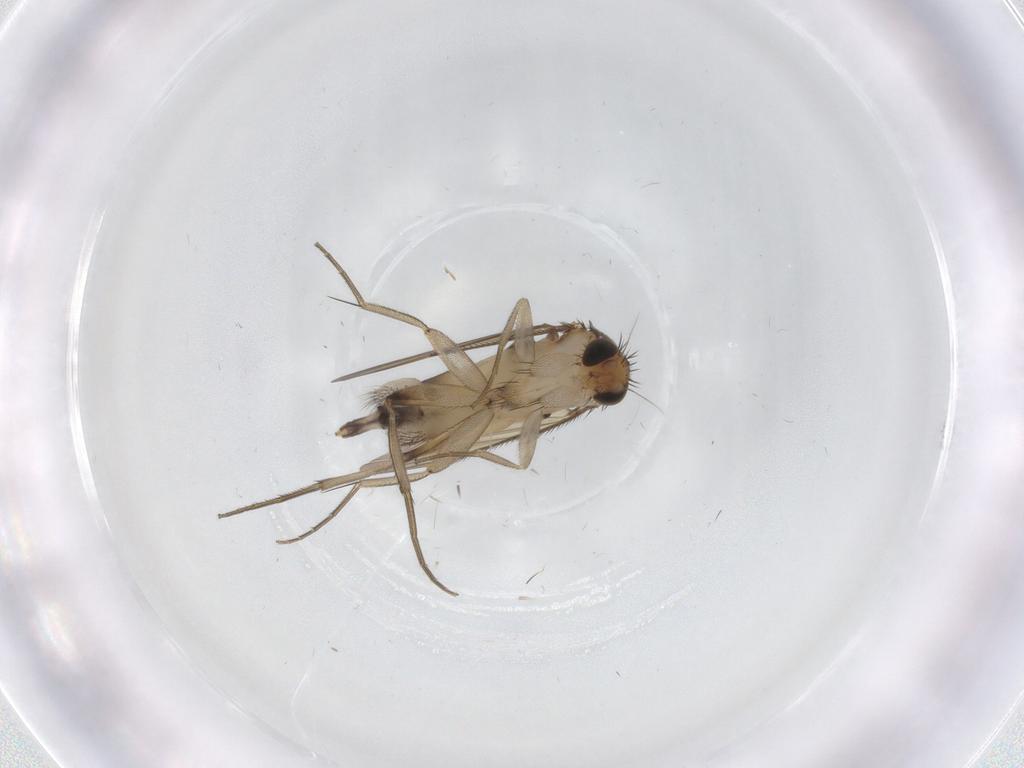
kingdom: Animalia
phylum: Arthropoda
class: Insecta
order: Diptera
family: Phoridae
